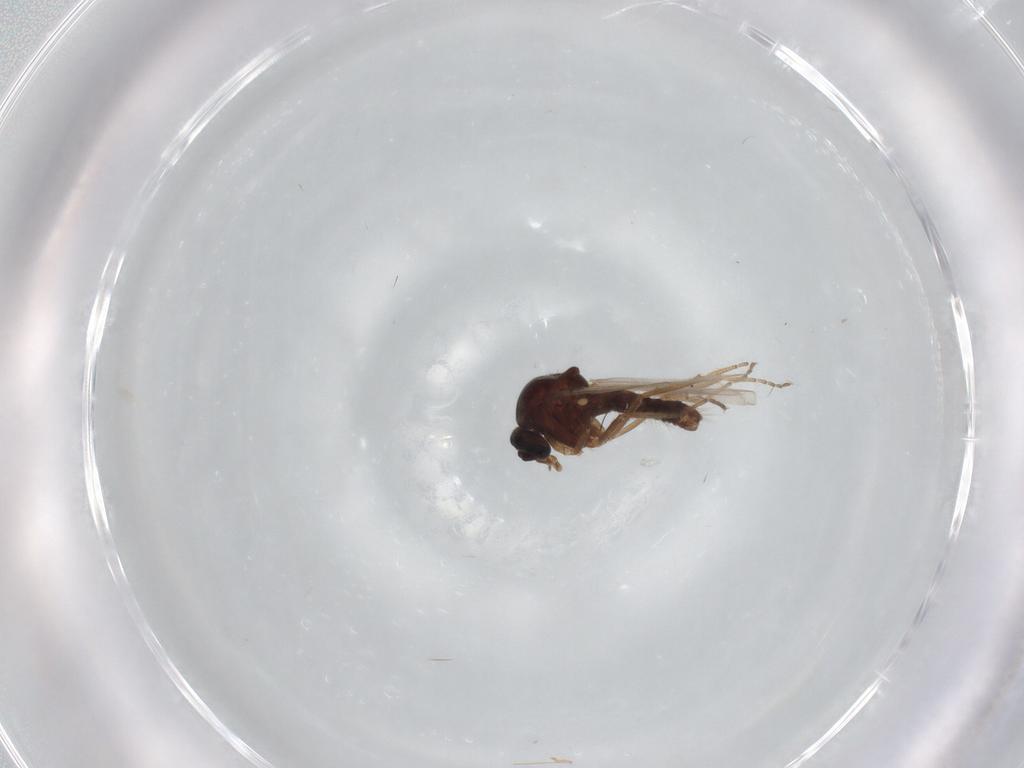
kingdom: Animalia
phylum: Arthropoda
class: Insecta
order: Diptera
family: Ceratopogonidae
